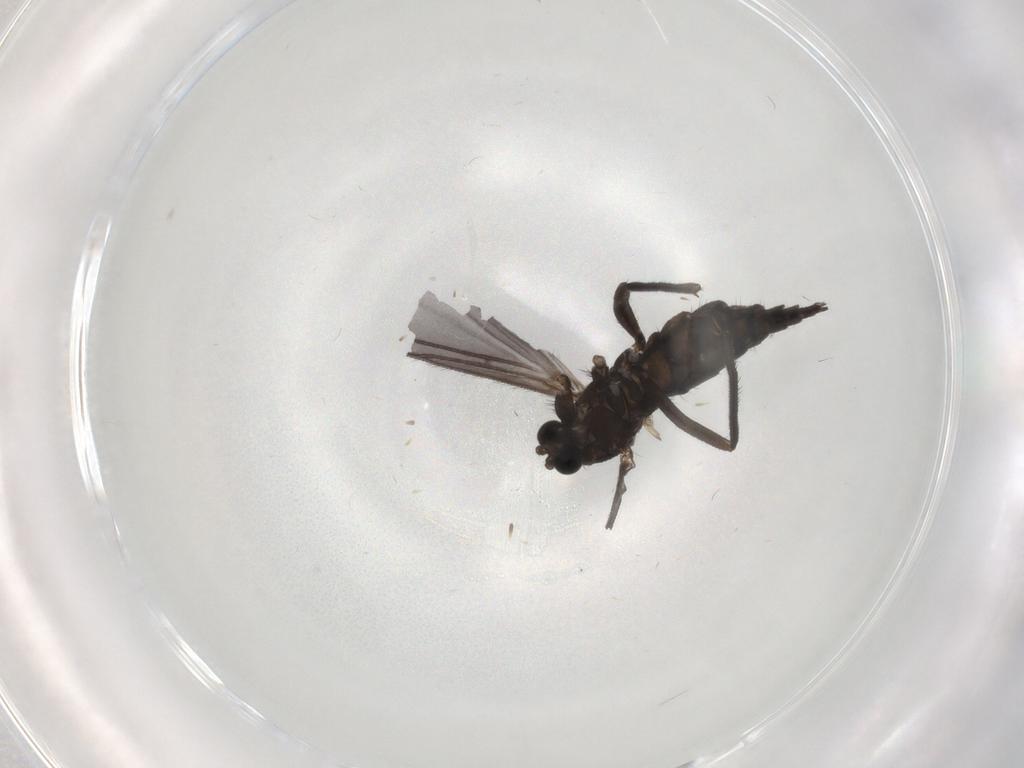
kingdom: Animalia
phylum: Arthropoda
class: Insecta
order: Diptera
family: Sciaridae
